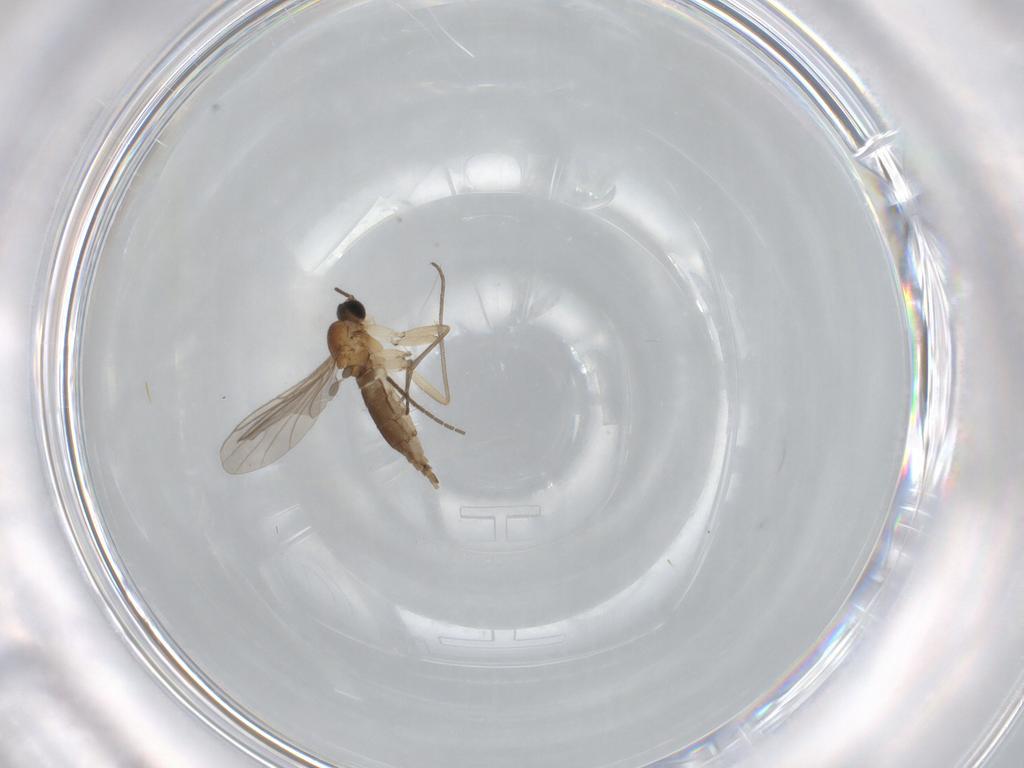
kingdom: Animalia
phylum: Arthropoda
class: Insecta
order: Diptera
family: Sciaridae
